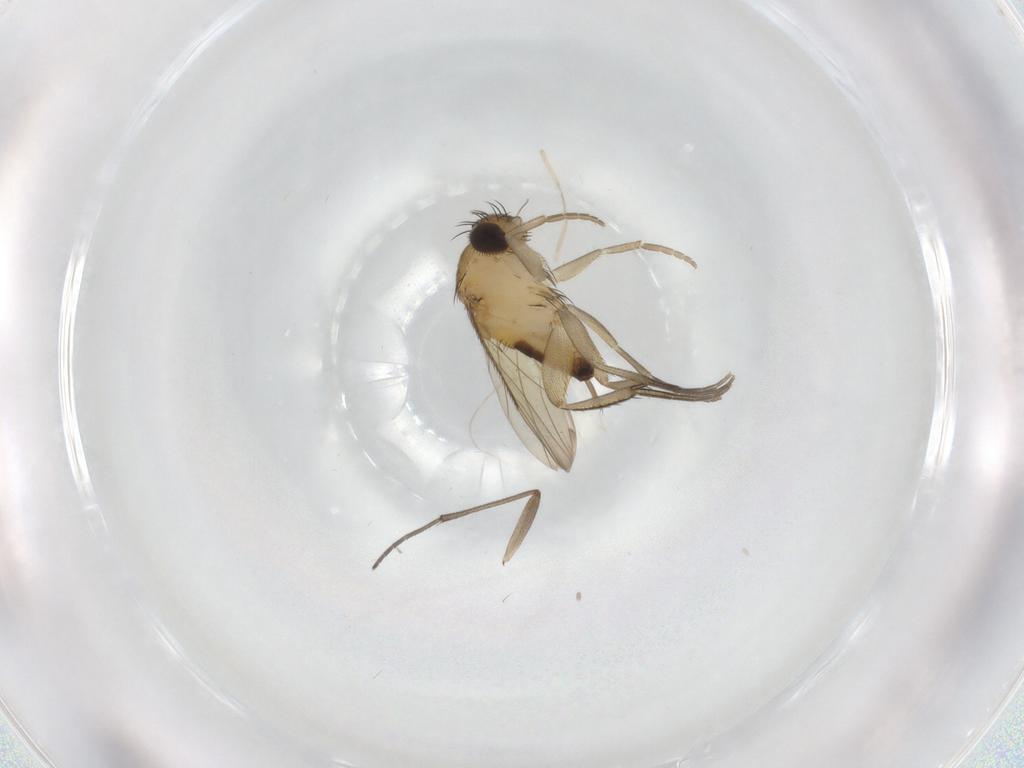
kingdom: Animalia
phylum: Arthropoda
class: Insecta
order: Diptera
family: Phoridae
